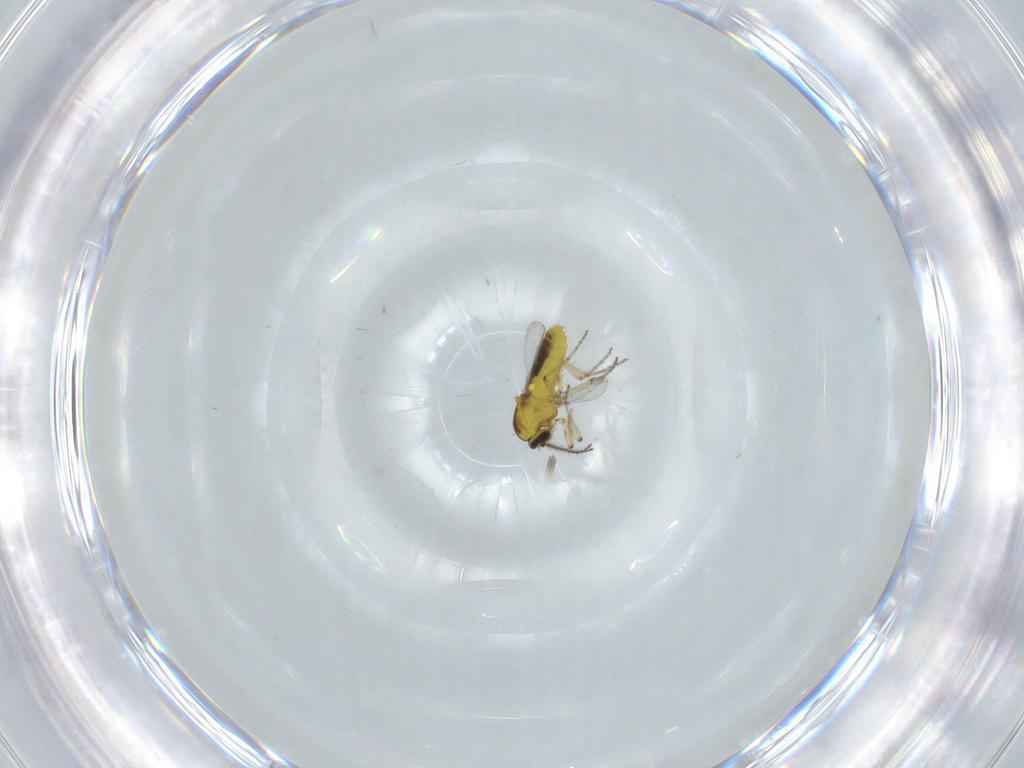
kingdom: Animalia
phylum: Arthropoda
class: Insecta
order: Diptera
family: Ceratopogonidae
